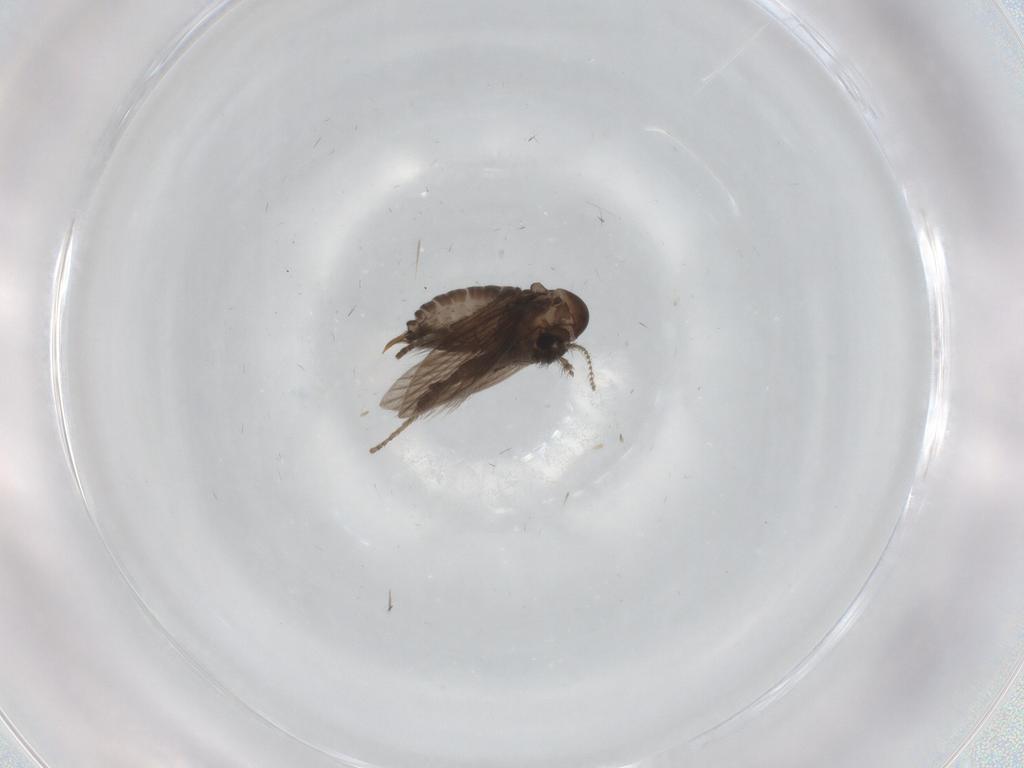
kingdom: Animalia
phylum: Arthropoda
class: Insecta
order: Diptera
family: Psychodidae
